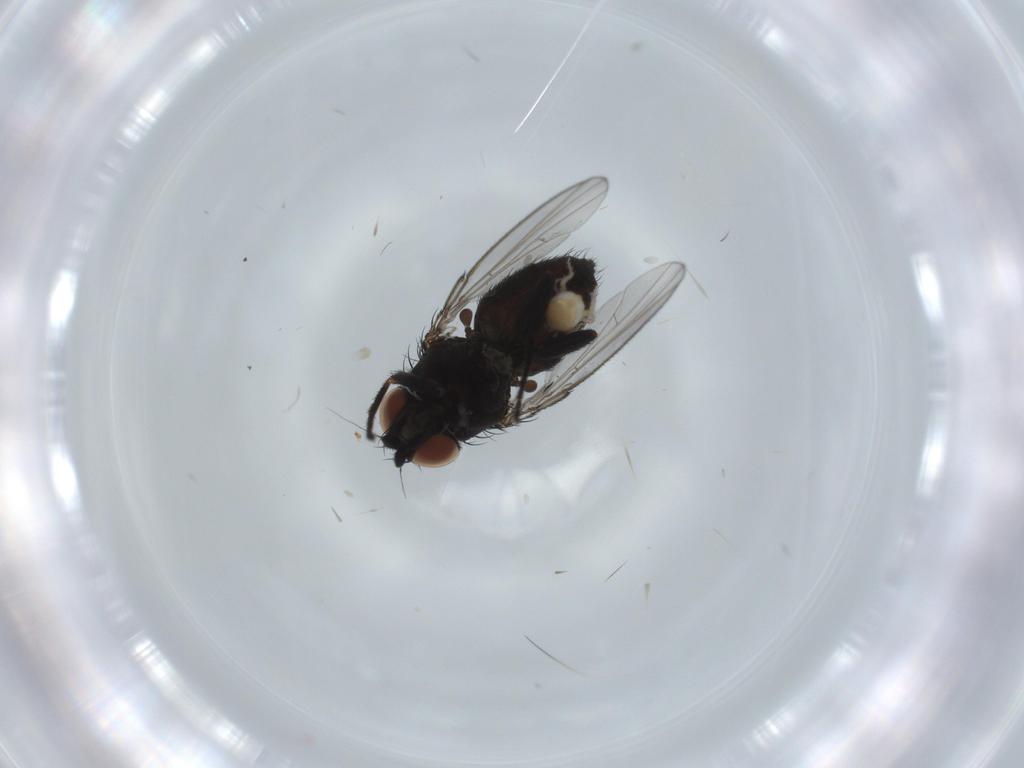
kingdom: Animalia
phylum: Arthropoda
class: Insecta
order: Diptera
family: Milichiidae
